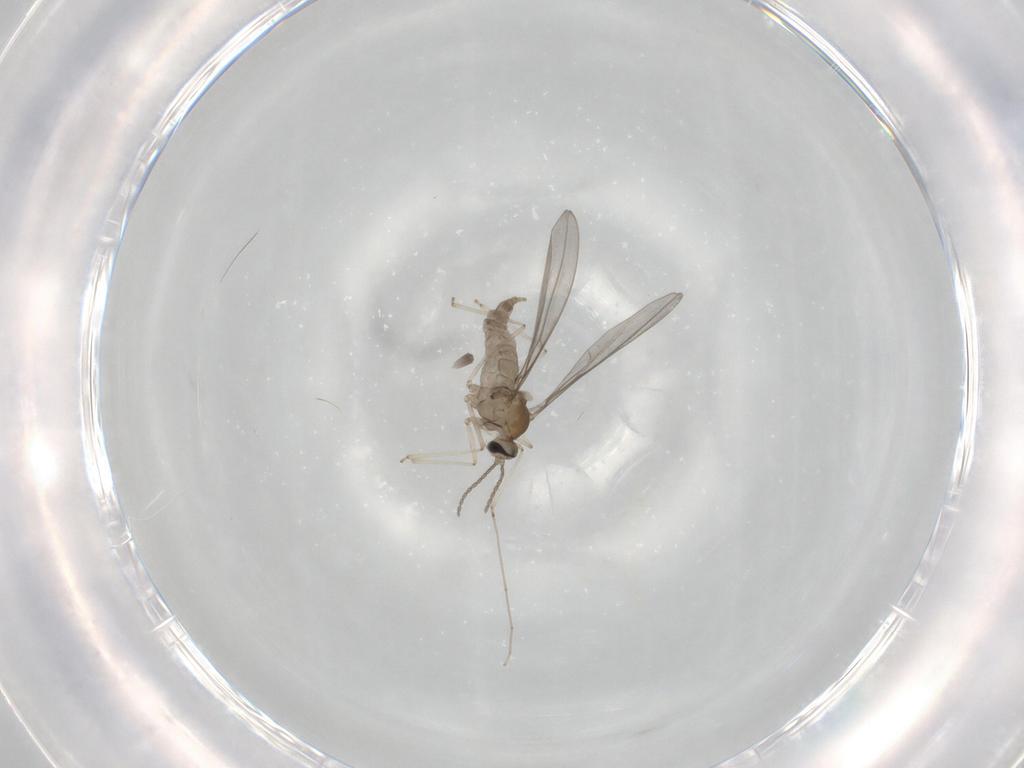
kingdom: Animalia
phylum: Arthropoda
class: Insecta
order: Diptera
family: Cecidomyiidae
